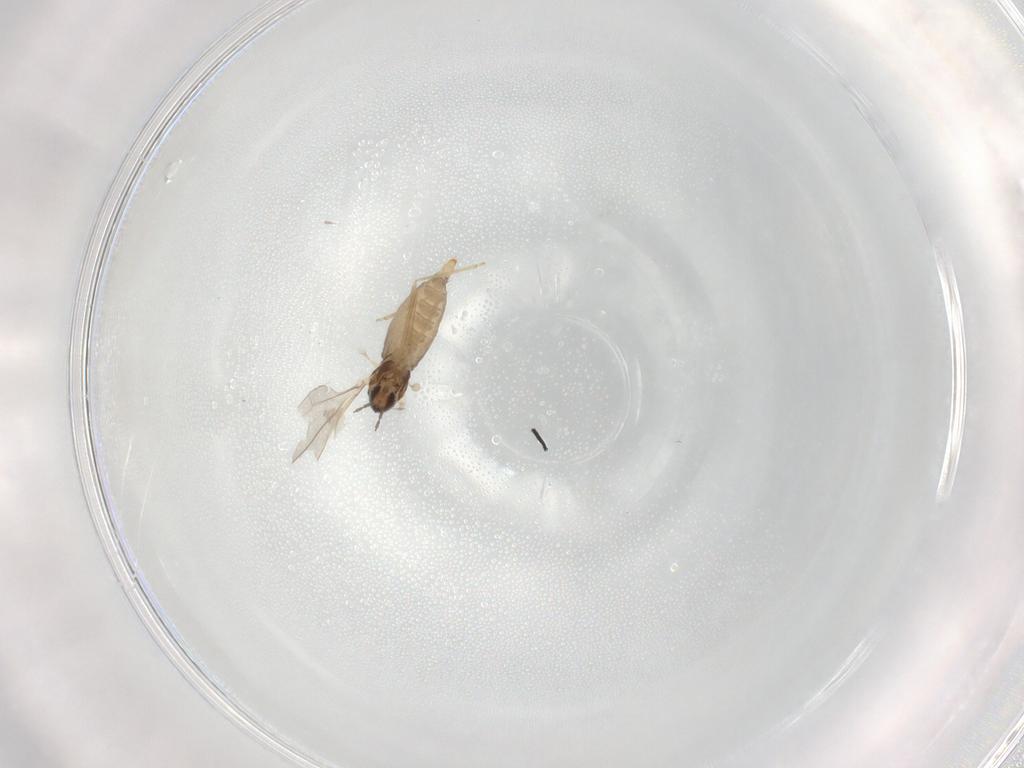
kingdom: Animalia
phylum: Arthropoda
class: Insecta
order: Diptera
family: Cecidomyiidae
